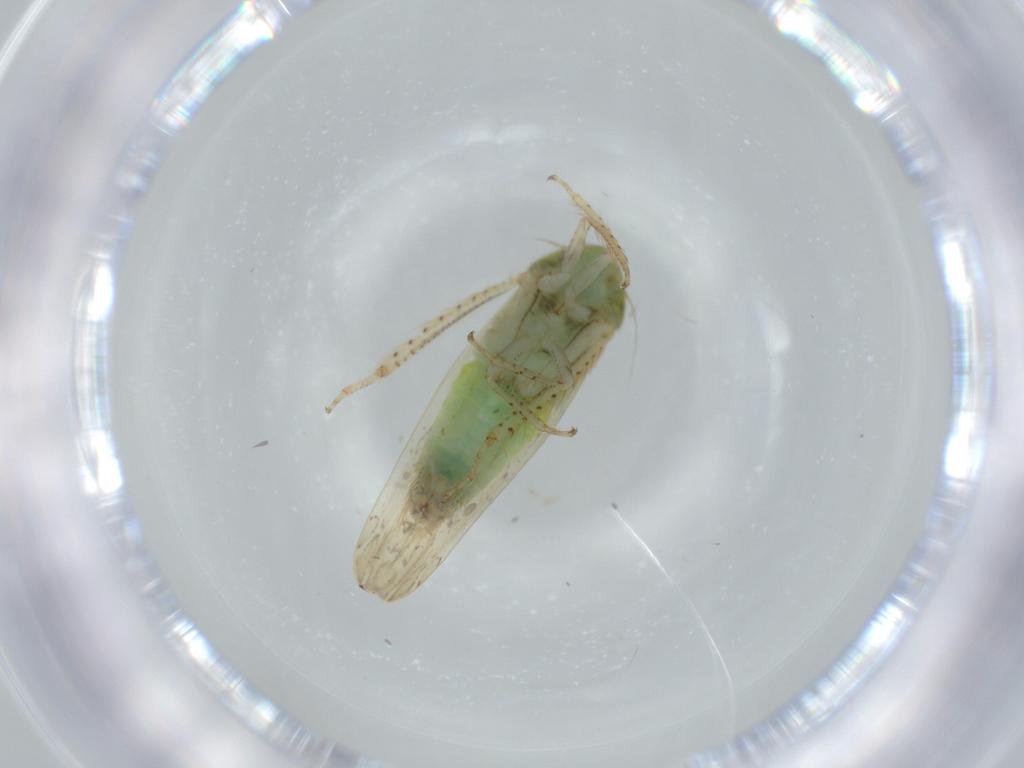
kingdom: Animalia
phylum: Arthropoda
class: Insecta
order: Hemiptera
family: Cicadellidae
